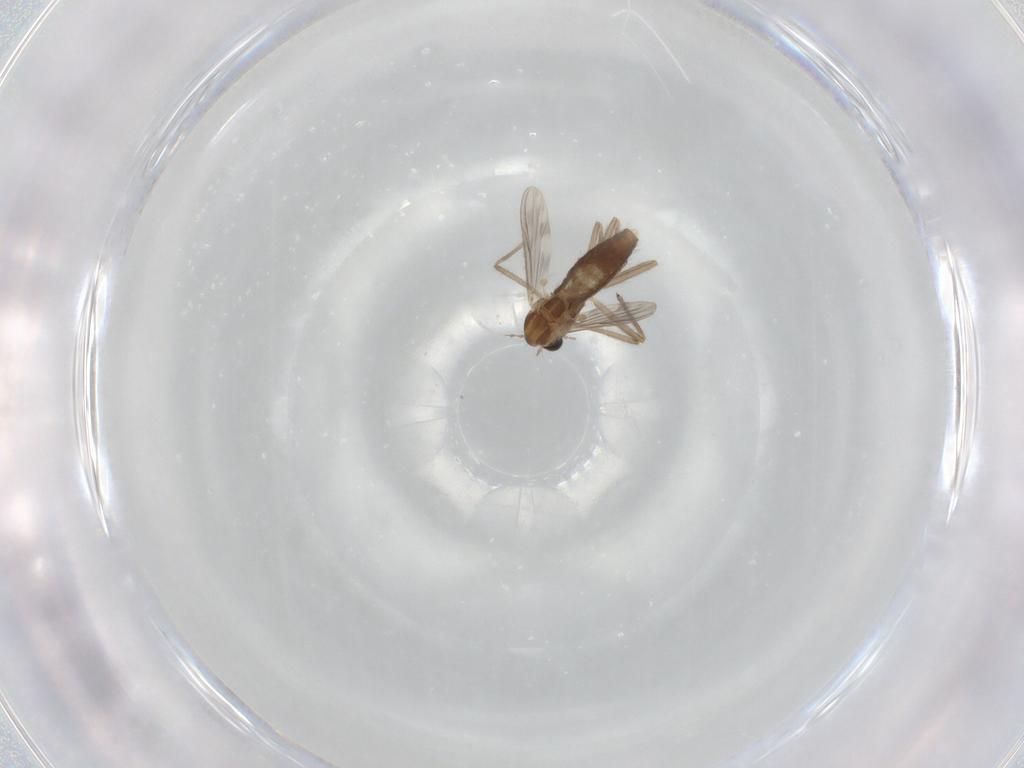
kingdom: Animalia
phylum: Arthropoda
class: Insecta
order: Diptera
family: Chironomidae
